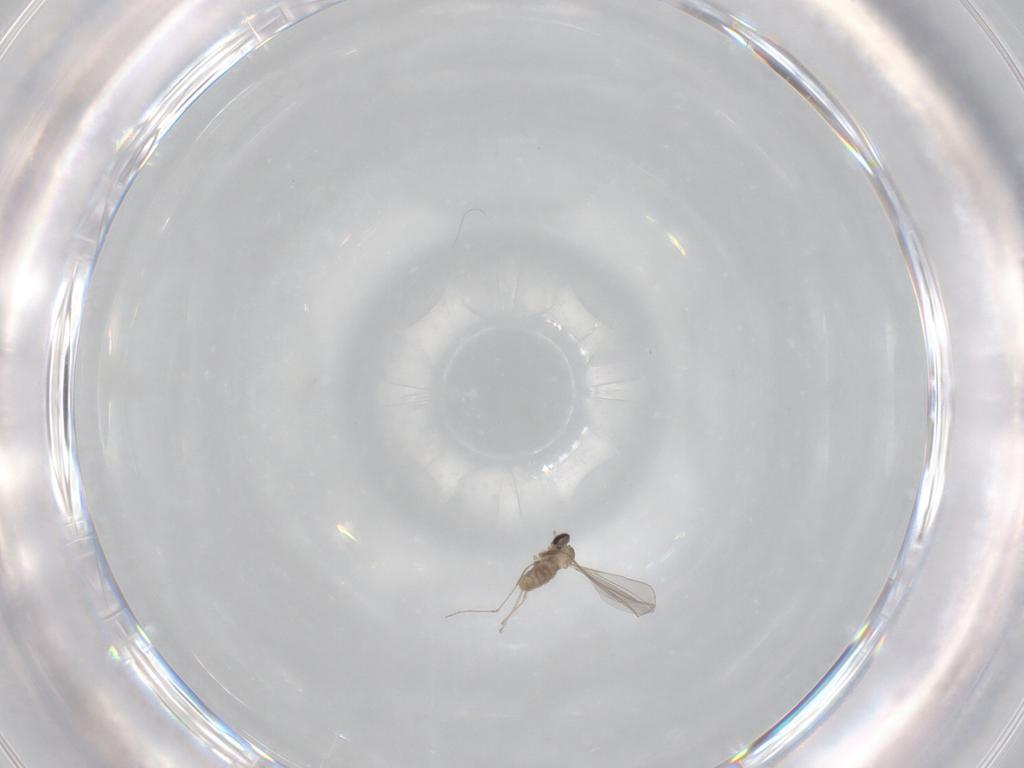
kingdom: Animalia
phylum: Arthropoda
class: Insecta
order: Diptera
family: Cecidomyiidae
